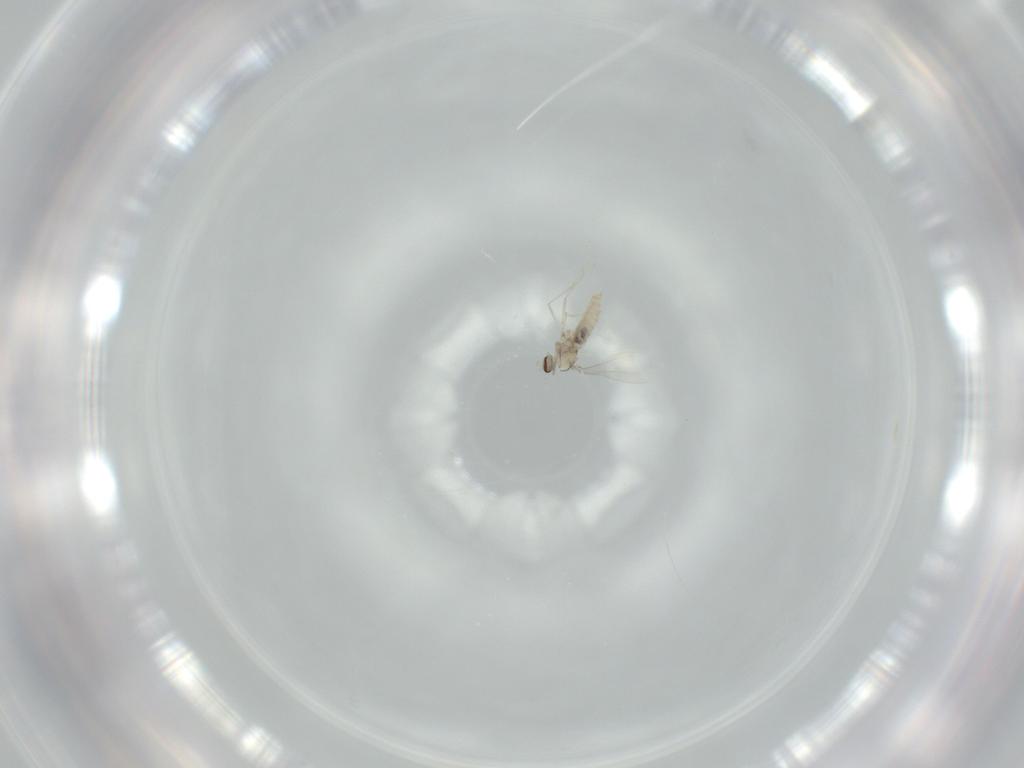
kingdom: Animalia
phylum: Arthropoda
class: Insecta
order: Diptera
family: Cecidomyiidae
